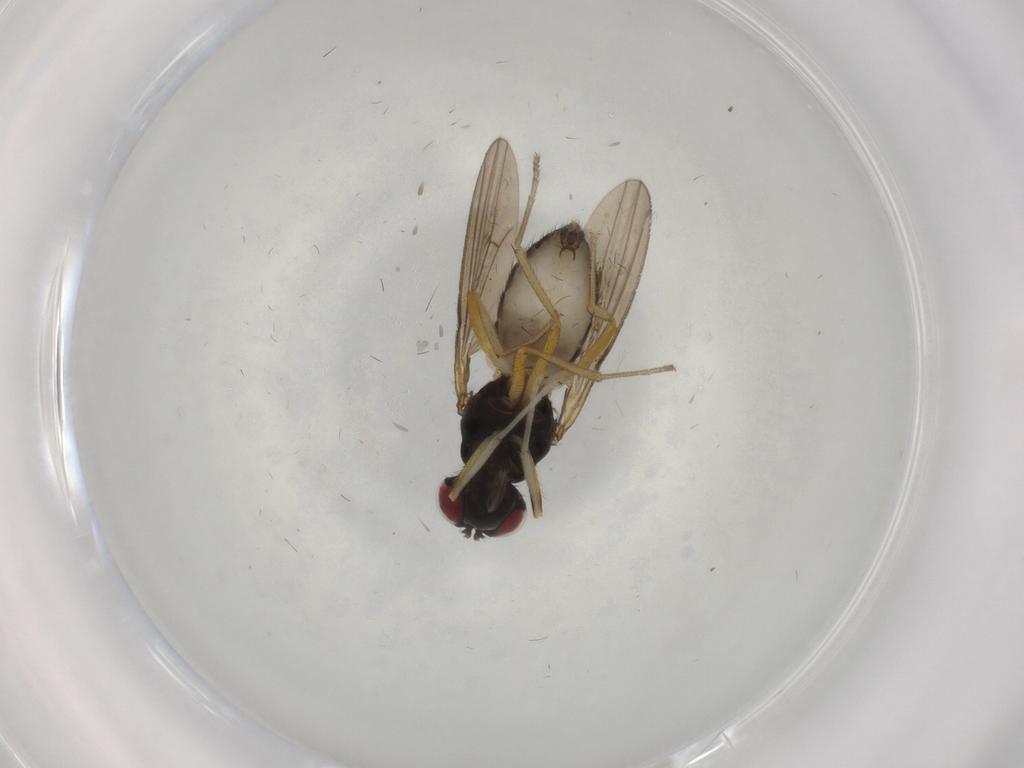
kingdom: Animalia
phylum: Arthropoda
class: Insecta
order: Diptera
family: Lauxaniidae
